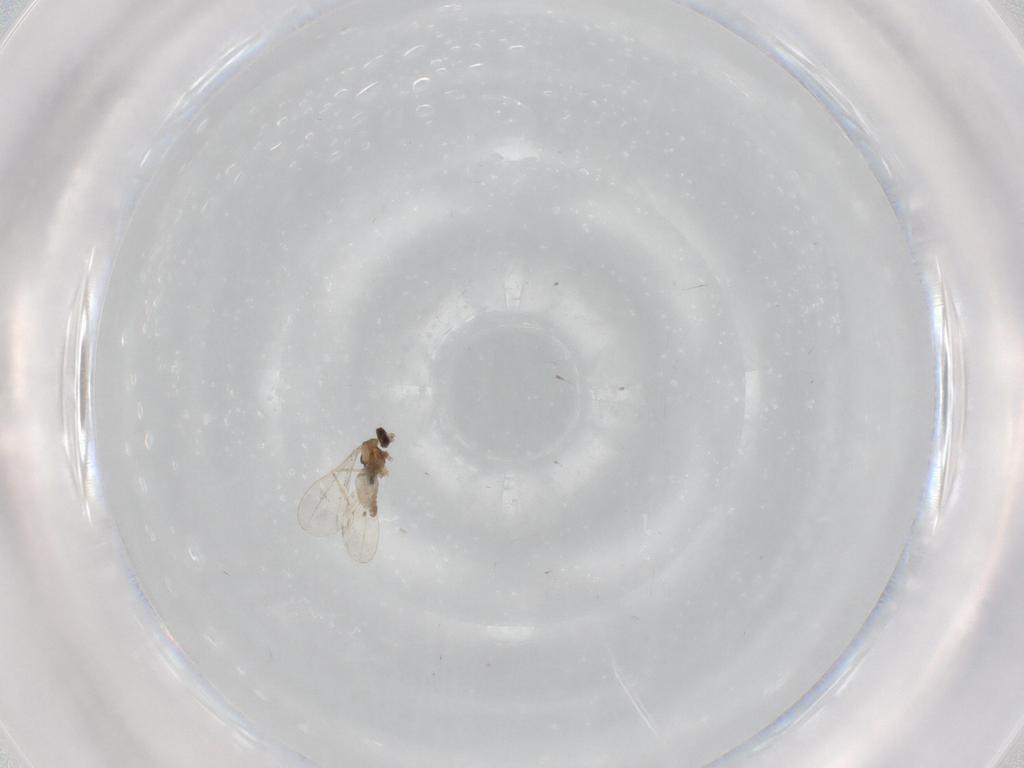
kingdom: Animalia
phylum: Arthropoda
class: Insecta
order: Diptera
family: Cecidomyiidae
